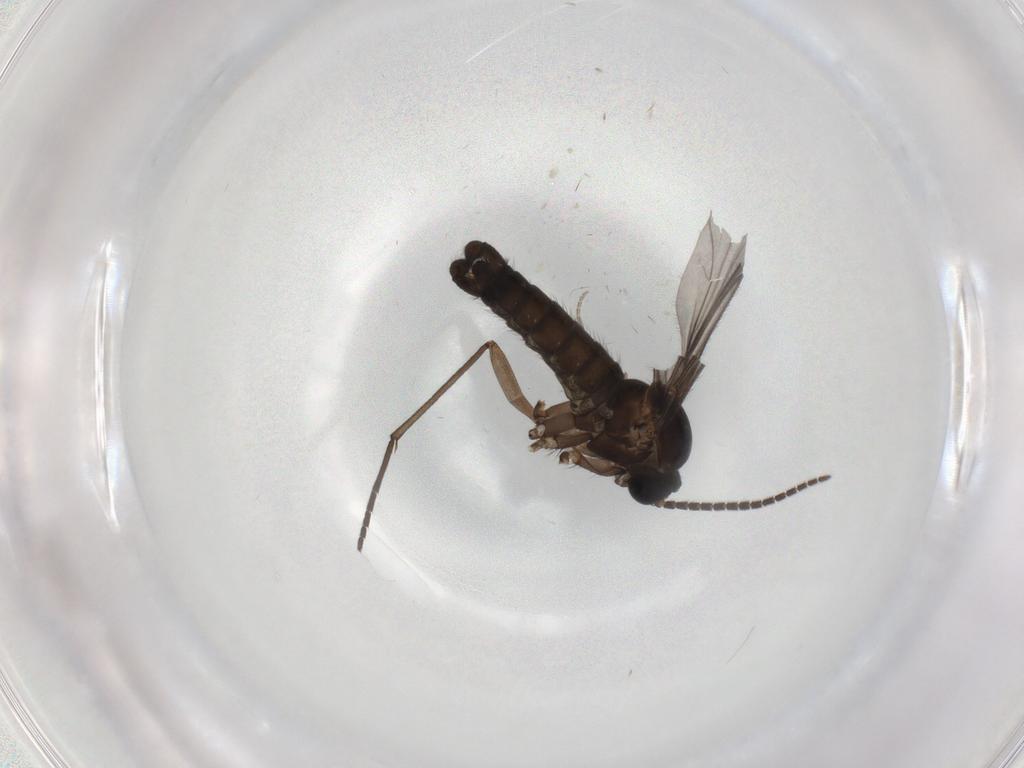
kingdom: Animalia
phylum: Arthropoda
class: Insecta
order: Diptera
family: Sciaridae
